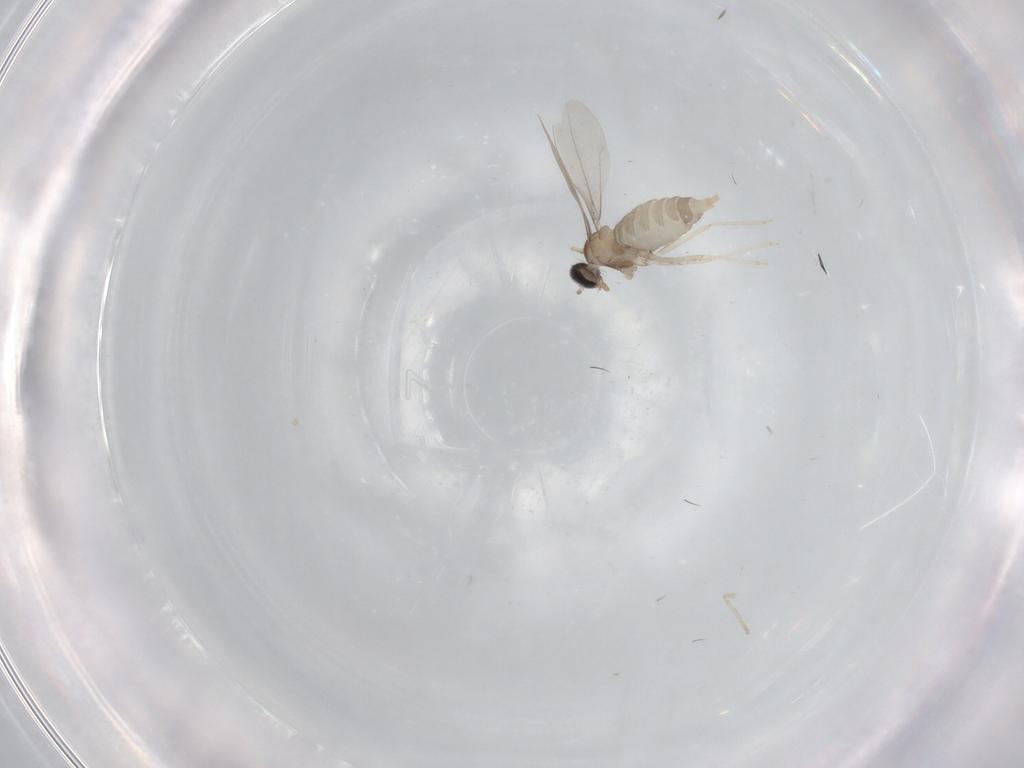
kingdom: Animalia
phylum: Arthropoda
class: Insecta
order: Diptera
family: Cecidomyiidae
